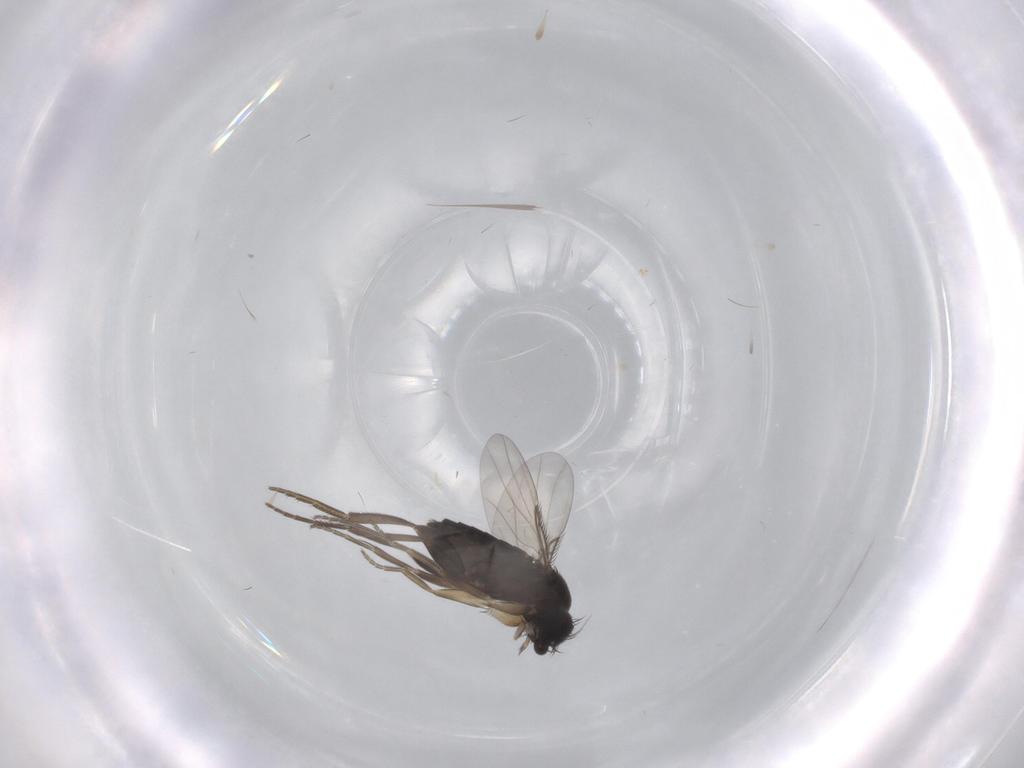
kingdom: Animalia
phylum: Arthropoda
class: Insecta
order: Diptera
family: Phoridae
